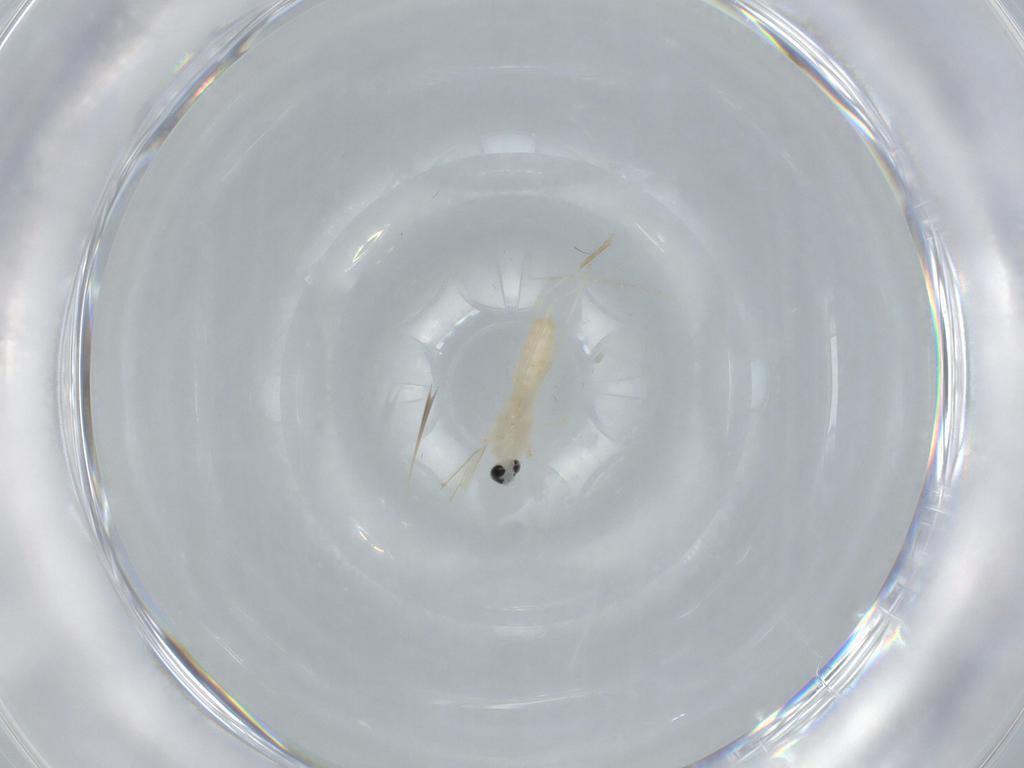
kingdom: Animalia
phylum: Arthropoda
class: Insecta
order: Diptera
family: Cecidomyiidae
